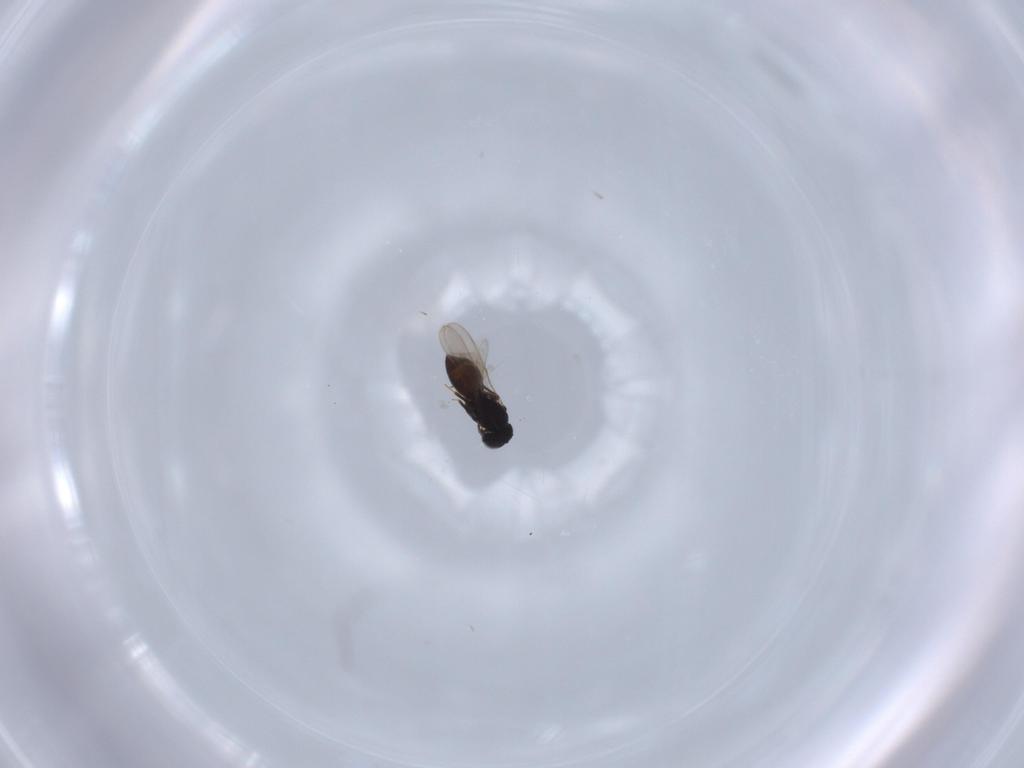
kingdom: Animalia
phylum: Arthropoda
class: Insecta
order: Hymenoptera
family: Scelionidae
